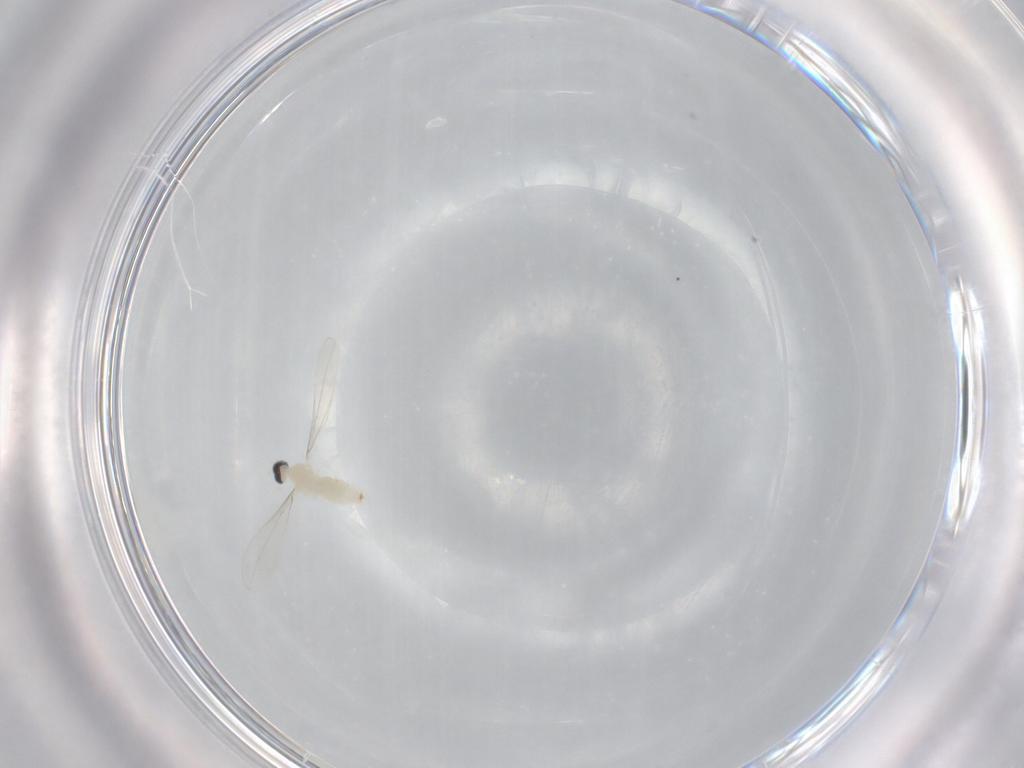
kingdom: Animalia
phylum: Arthropoda
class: Insecta
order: Diptera
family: Cecidomyiidae
